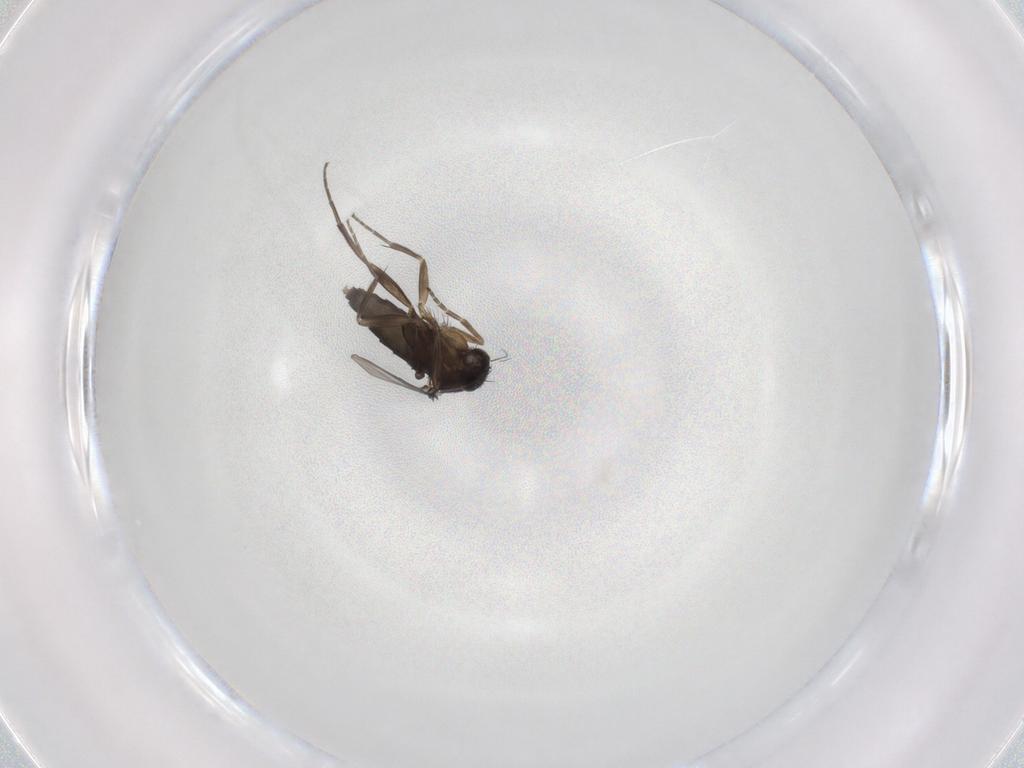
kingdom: Animalia
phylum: Arthropoda
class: Insecta
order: Diptera
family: Phoridae
